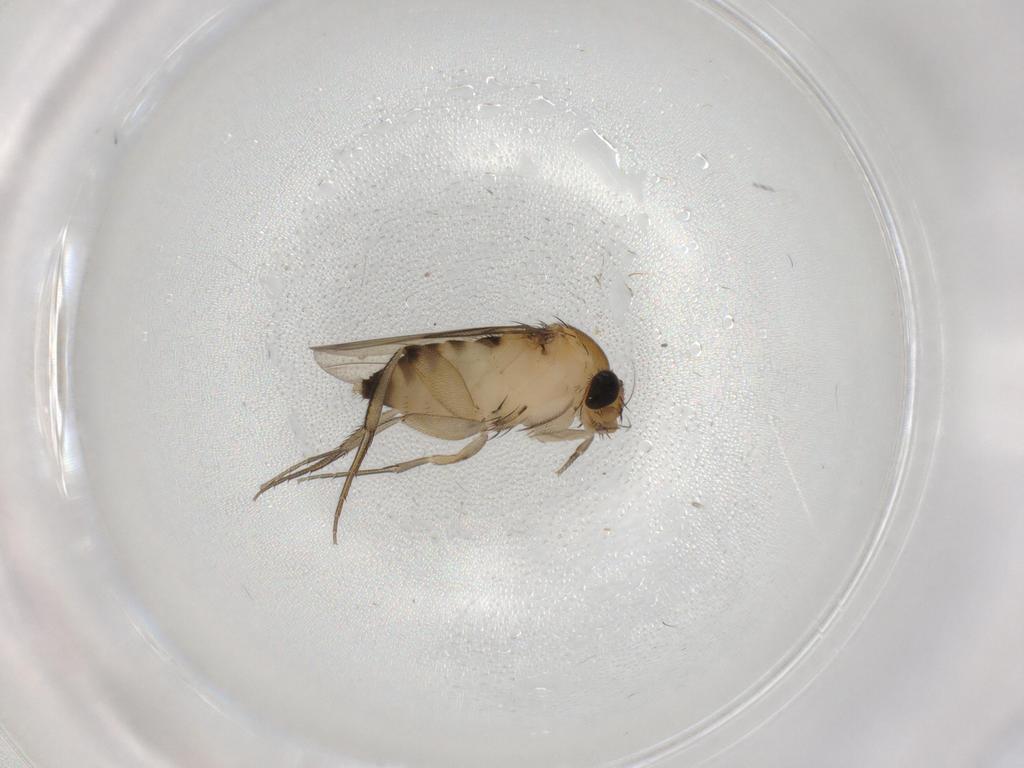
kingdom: Animalia
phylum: Arthropoda
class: Insecta
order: Diptera
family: Phoridae
